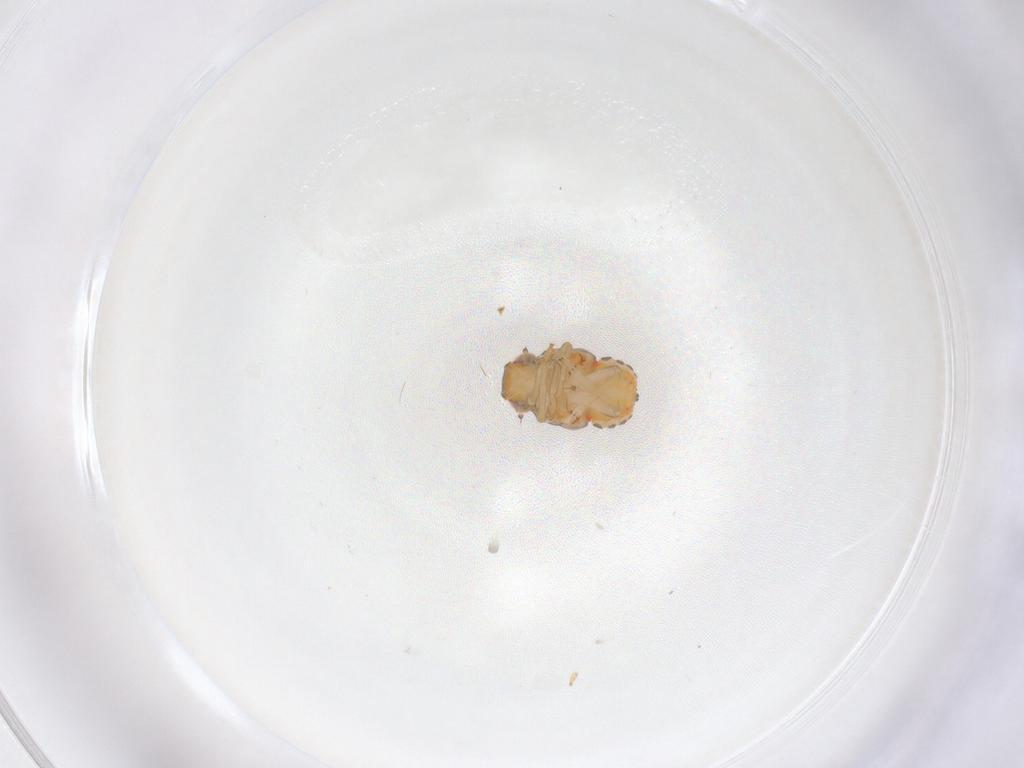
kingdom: Animalia
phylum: Arthropoda
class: Insecta
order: Hemiptera
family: Issidae
